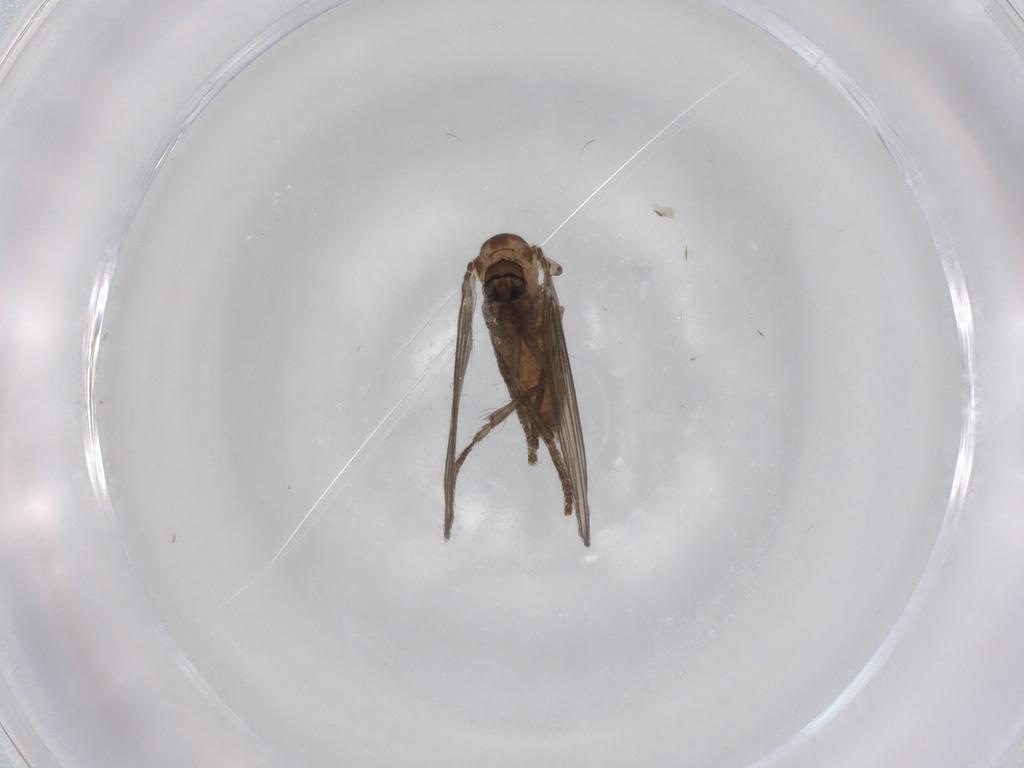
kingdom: Animalia
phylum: Arthropoda
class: Insecta
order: Diptera
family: Psychodidae
